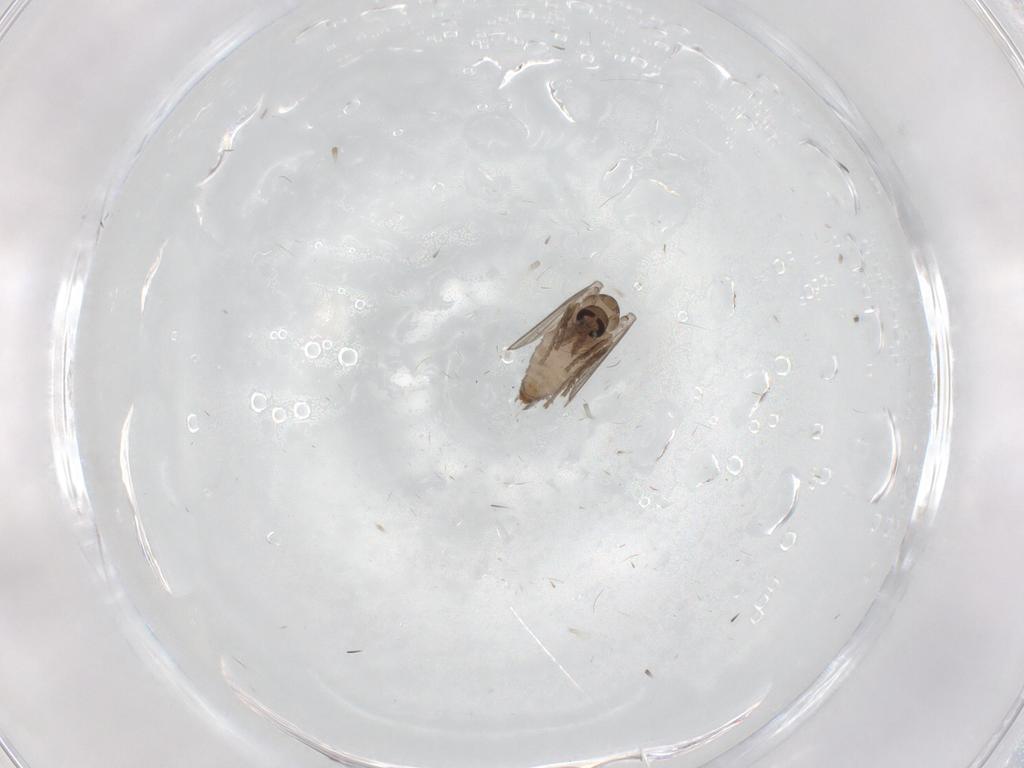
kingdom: Animalia
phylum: Arthropoda
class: Insecta
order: Diptera
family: Psychodidae
